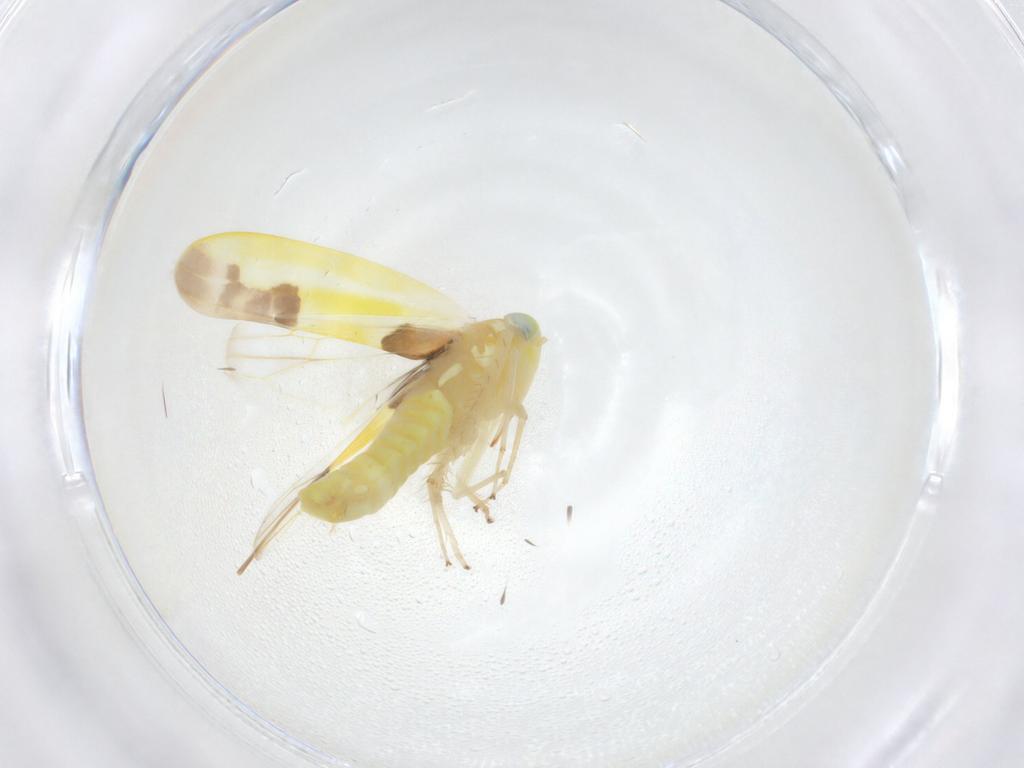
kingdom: Animalia
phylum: Arthropoda
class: Insecta
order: Hemiptera
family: Cicadellidae
